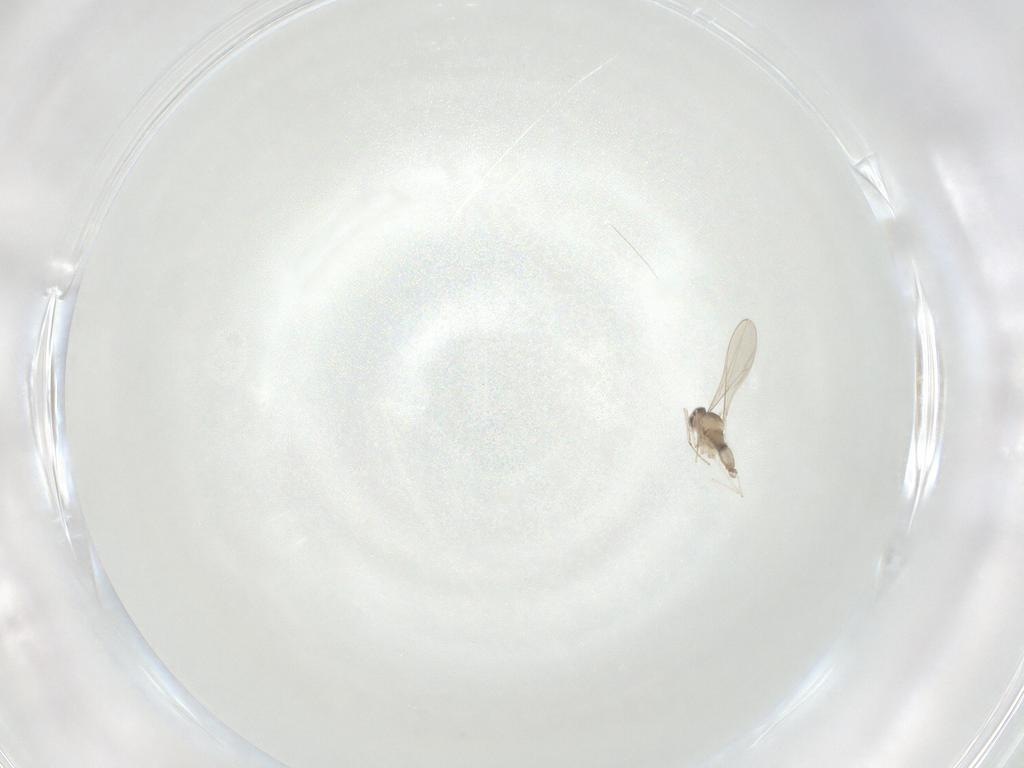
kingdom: Animalia
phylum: Arthropoda
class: Insecta
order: Diptera
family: Cecidomyiidae
